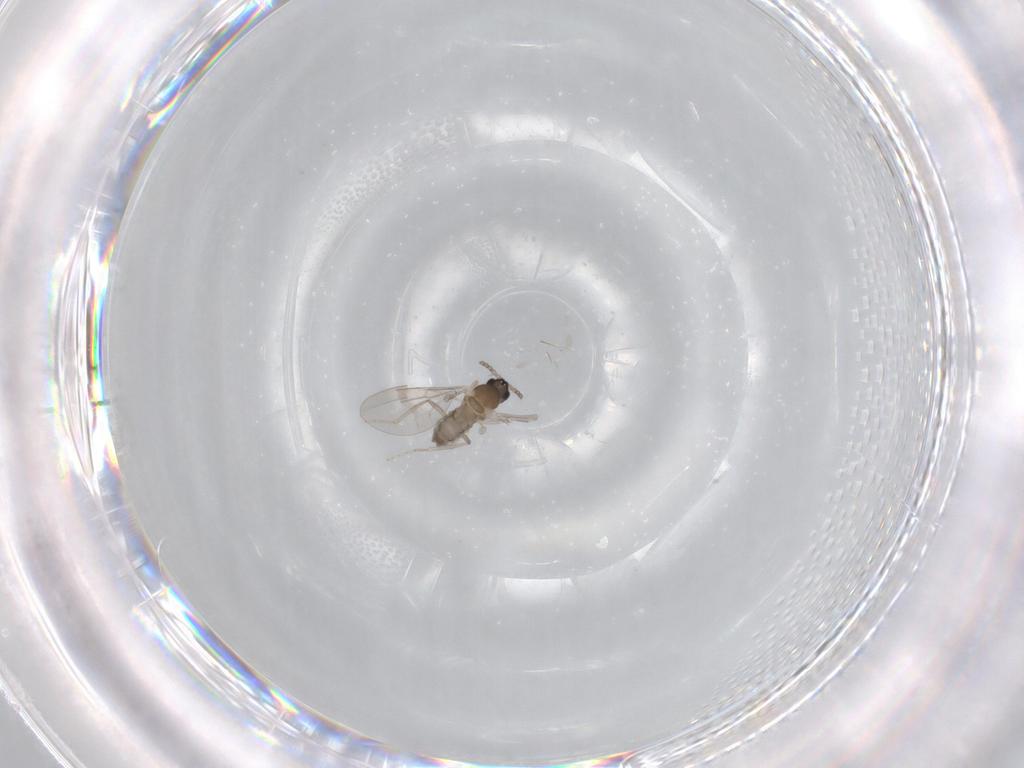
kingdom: Animalia
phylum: Arthropoda
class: Insecta
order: Diptera
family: Cecidomyiidae
